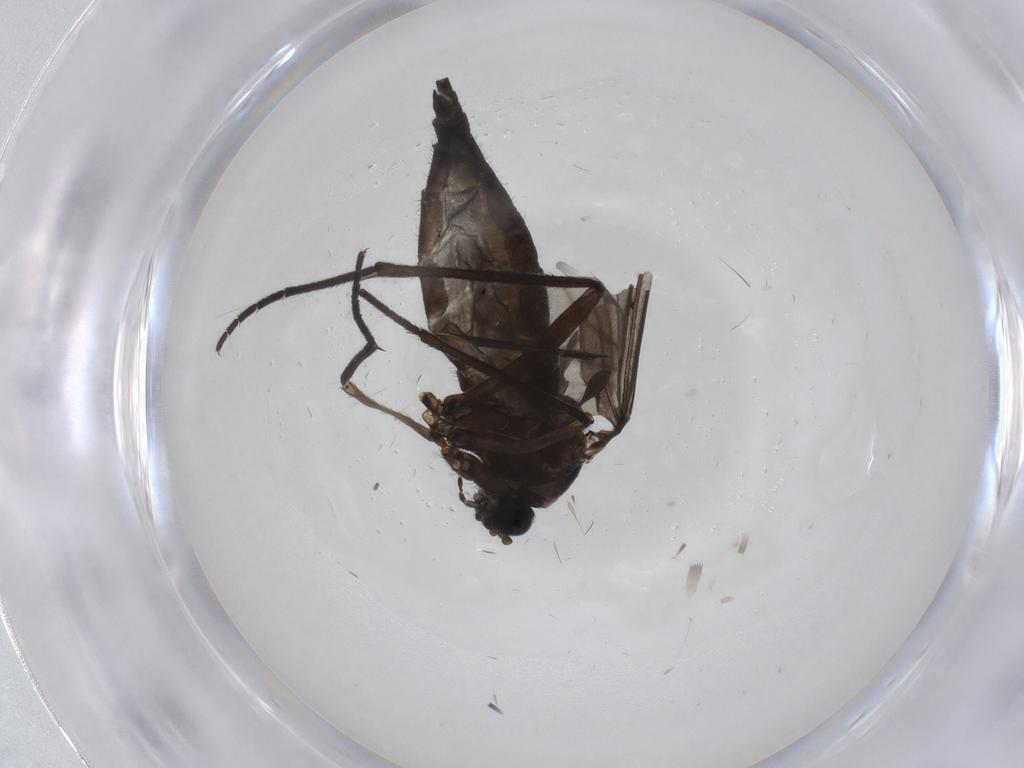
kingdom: Animalia
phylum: Arthropoda
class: Insecta
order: Diptera
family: Sciaridae
